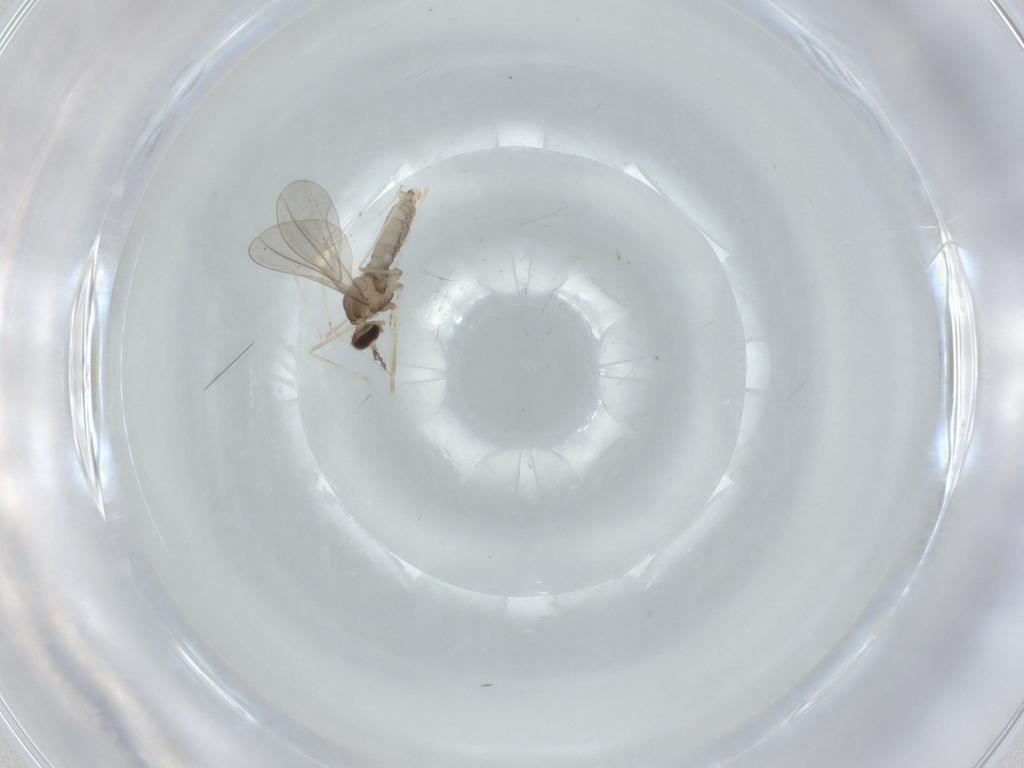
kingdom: Animalia
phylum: Arthropoda
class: Insecta
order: Diptera
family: Cecidomyiidae
